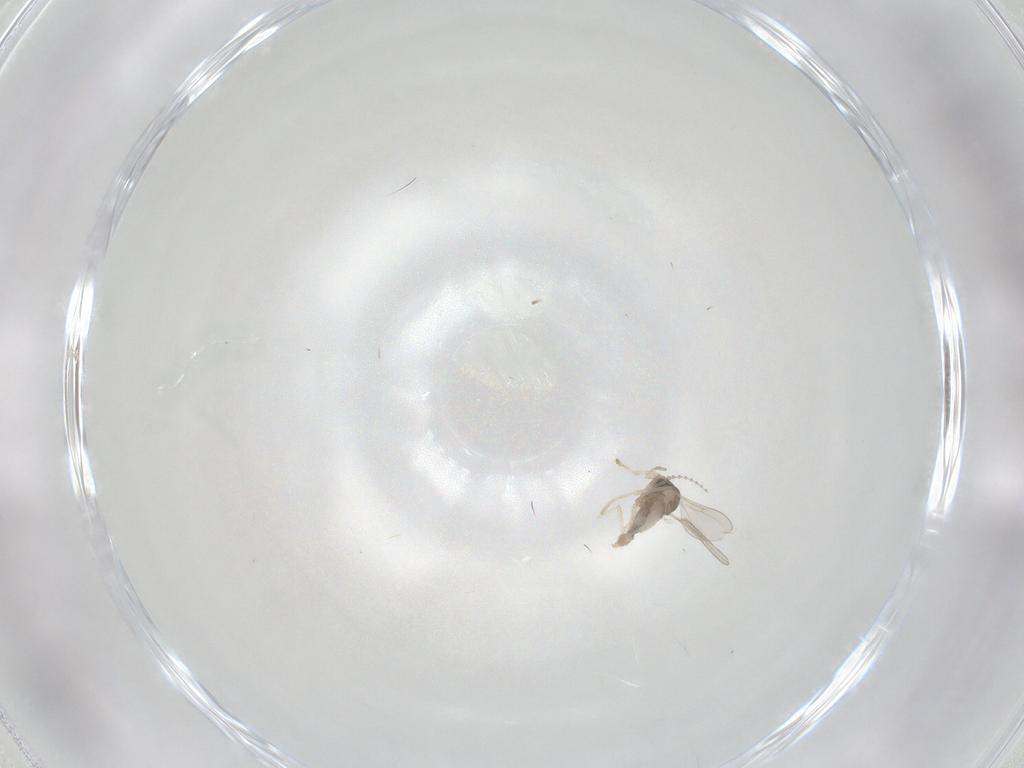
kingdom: Animalia
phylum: Arthropoda
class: Insecta
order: Diptera
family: Cecidomyiidae
